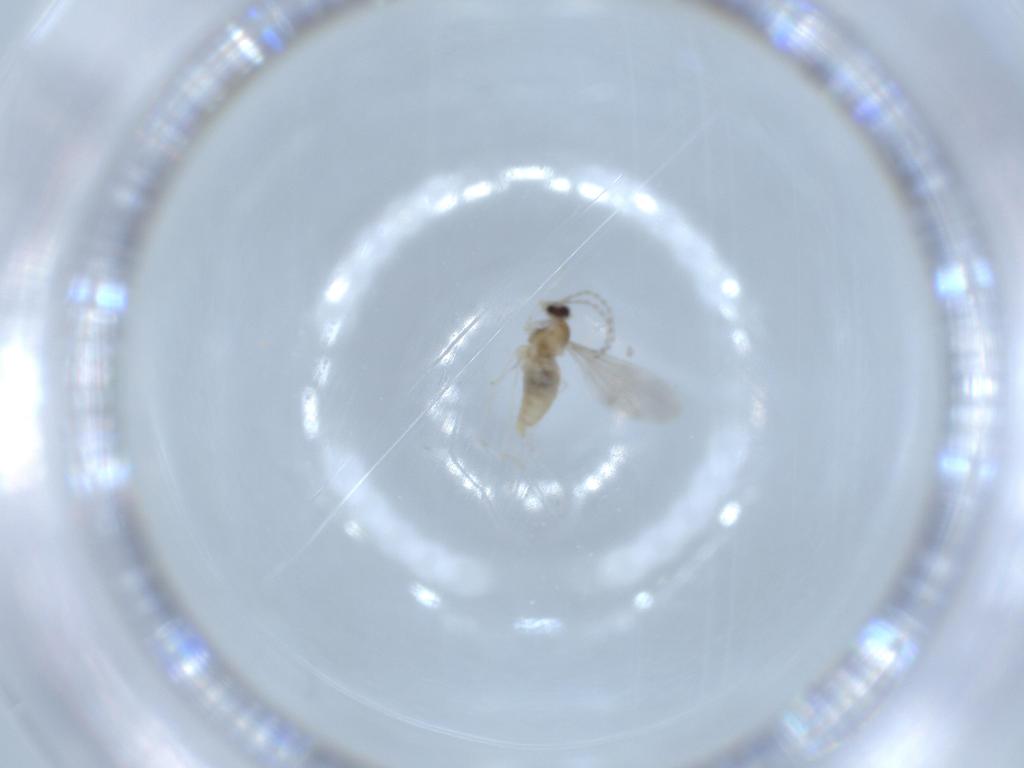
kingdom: Animalia
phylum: Arthropoda
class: Insecta
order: Diptera
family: Cecidomyiidae
